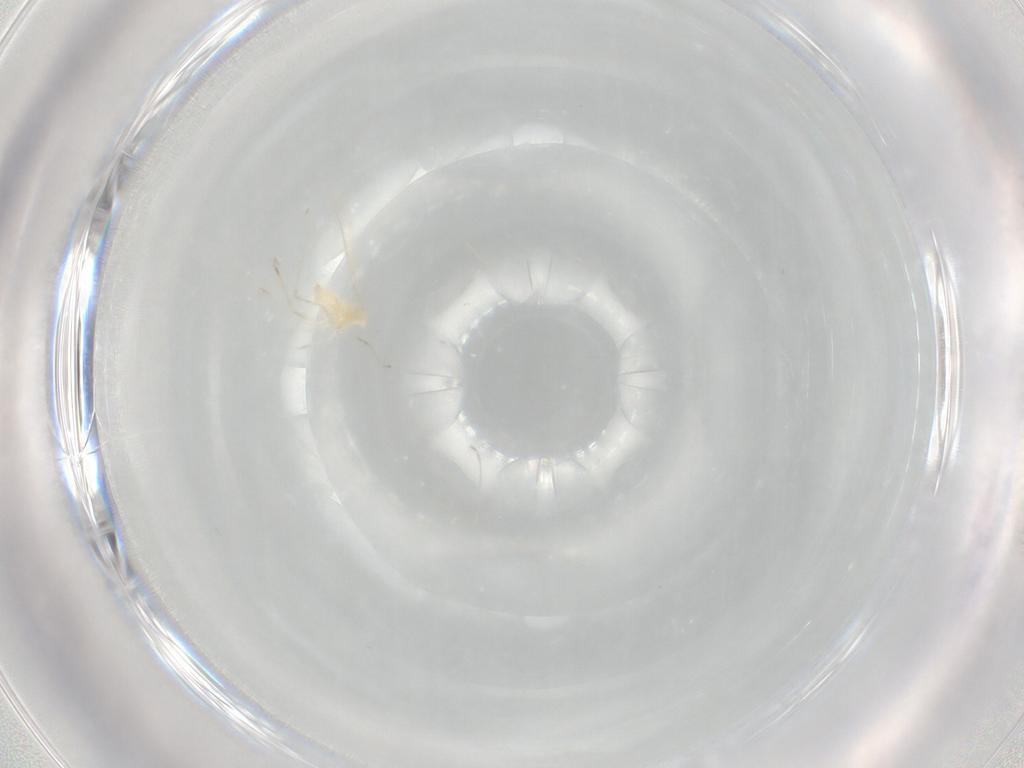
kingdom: Animalia
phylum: Arthropoda
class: Insecta
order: Diptera
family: Cecidomyiidae
